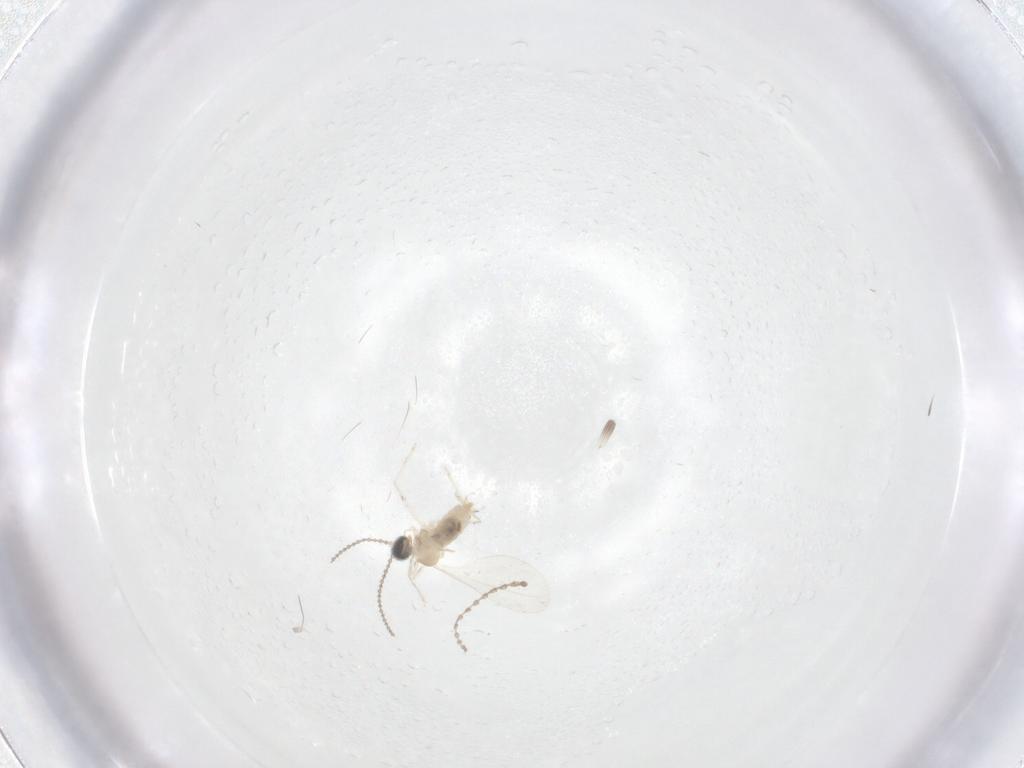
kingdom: Animalia
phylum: Arthropoda
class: Insecta
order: Diptera
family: Cecidomyiidae
